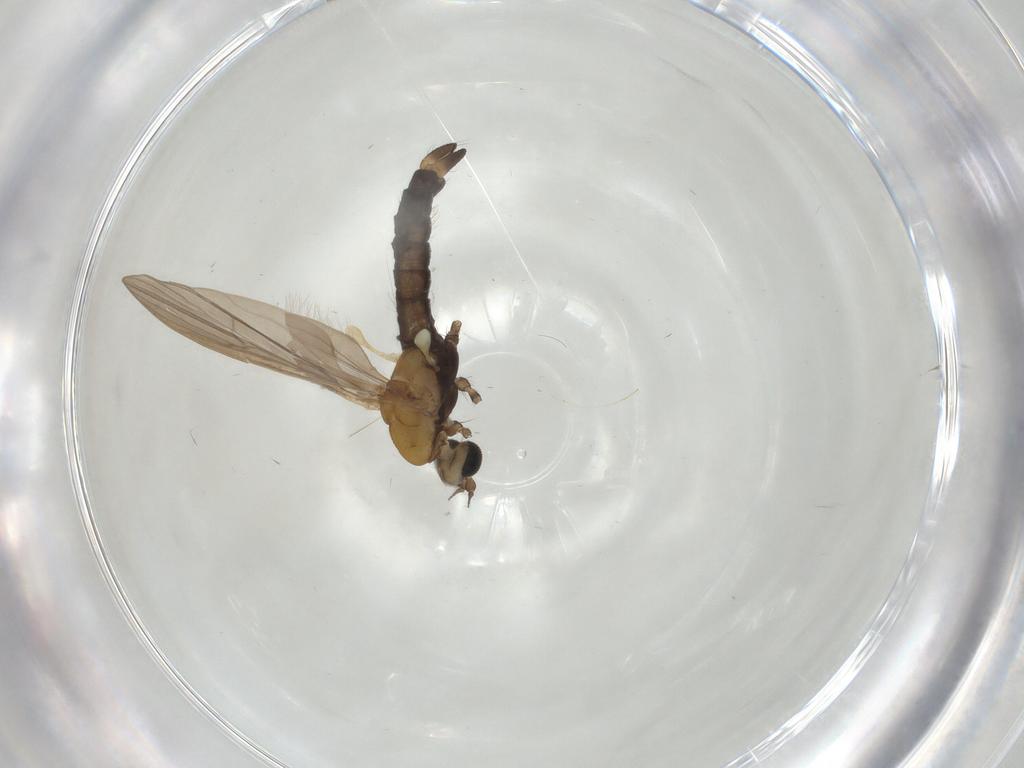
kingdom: Animalia
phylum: Arthropoda
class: Insecta
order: Diptera
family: Limoniidae
